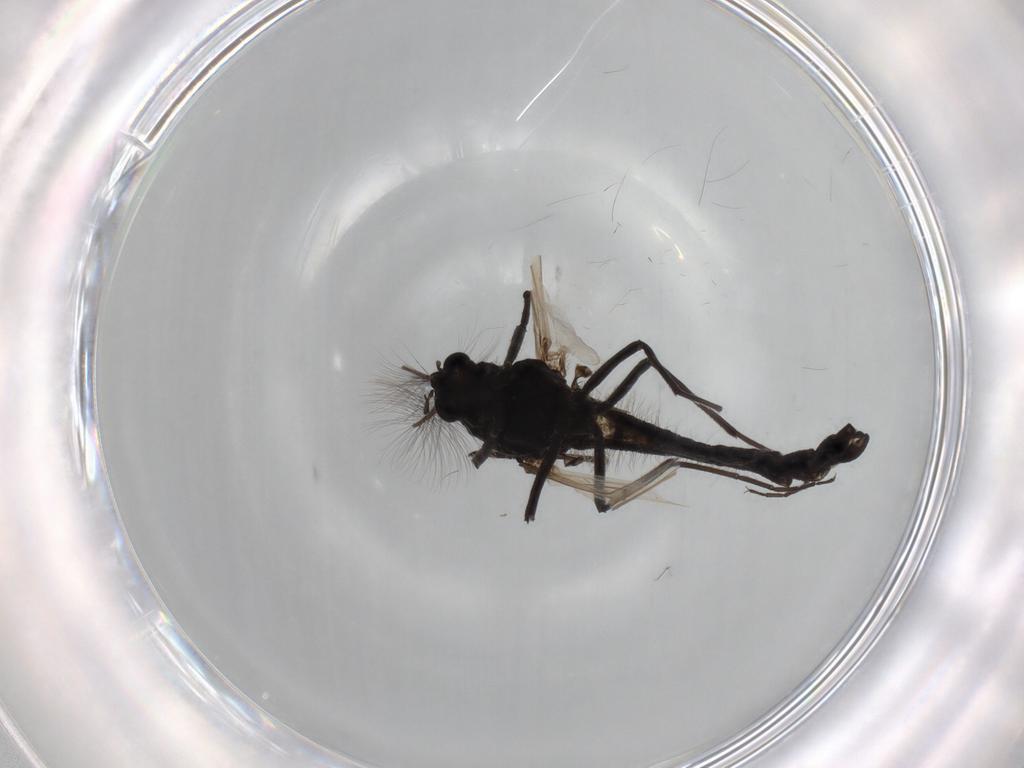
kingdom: Animalia
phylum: Arthropoda
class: Insecta
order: Diptera
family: Chironomidae
